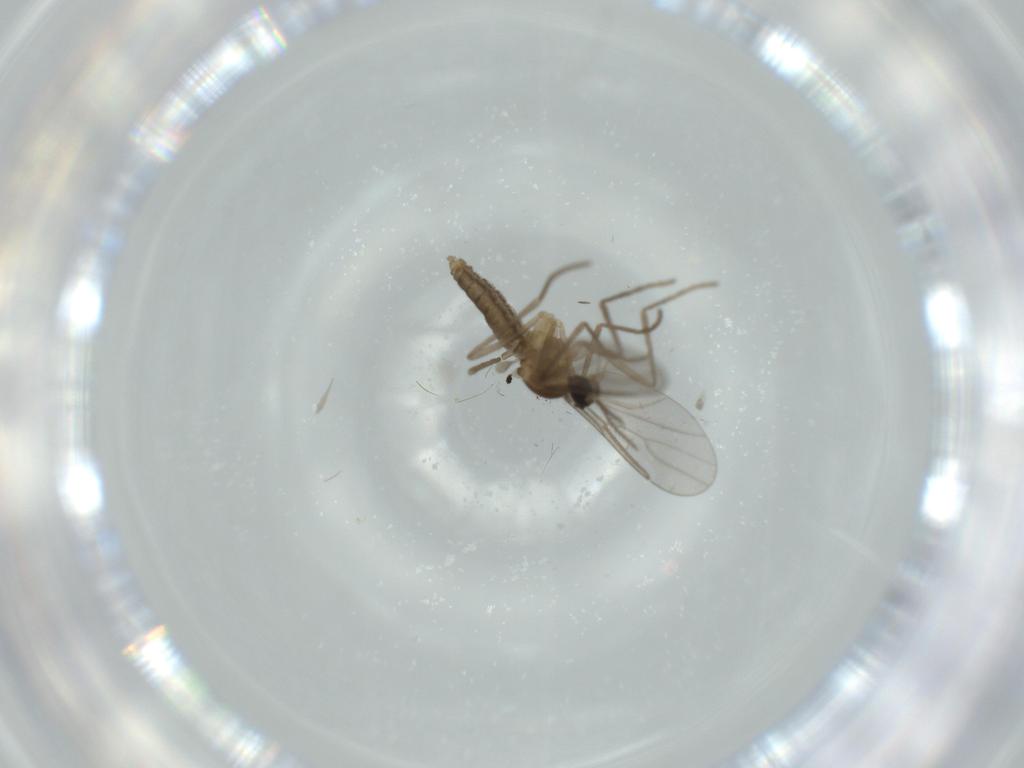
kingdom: Animalia
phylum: Arthropoda
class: Insecta
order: Diptera
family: Cecidomyiidae
